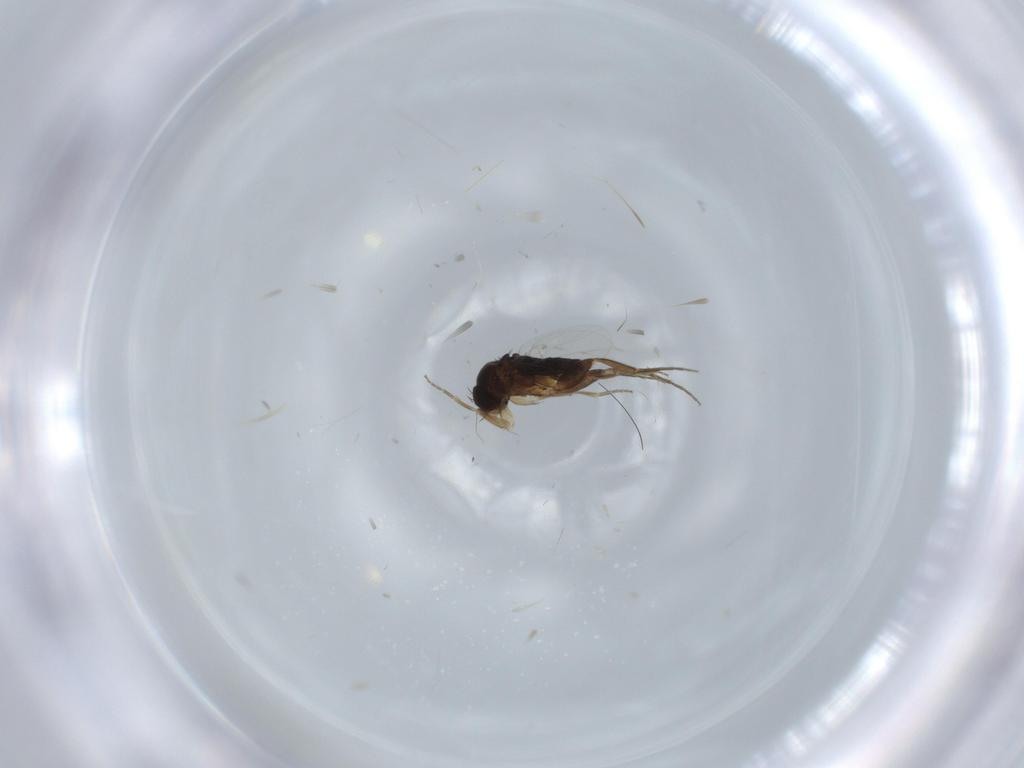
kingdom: Animalia
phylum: Arthropoda
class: Insecta
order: Diptera
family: Phoridae
